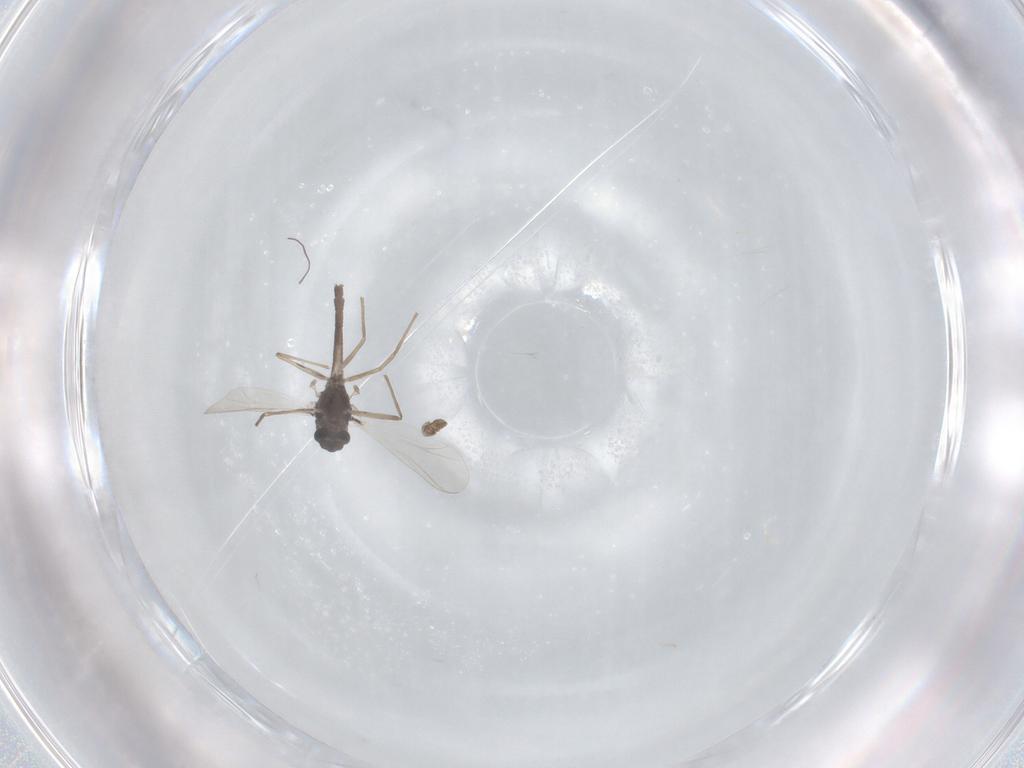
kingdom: Animalia
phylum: Arthropoda
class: Insecta
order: Diptera
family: Chironomidae
